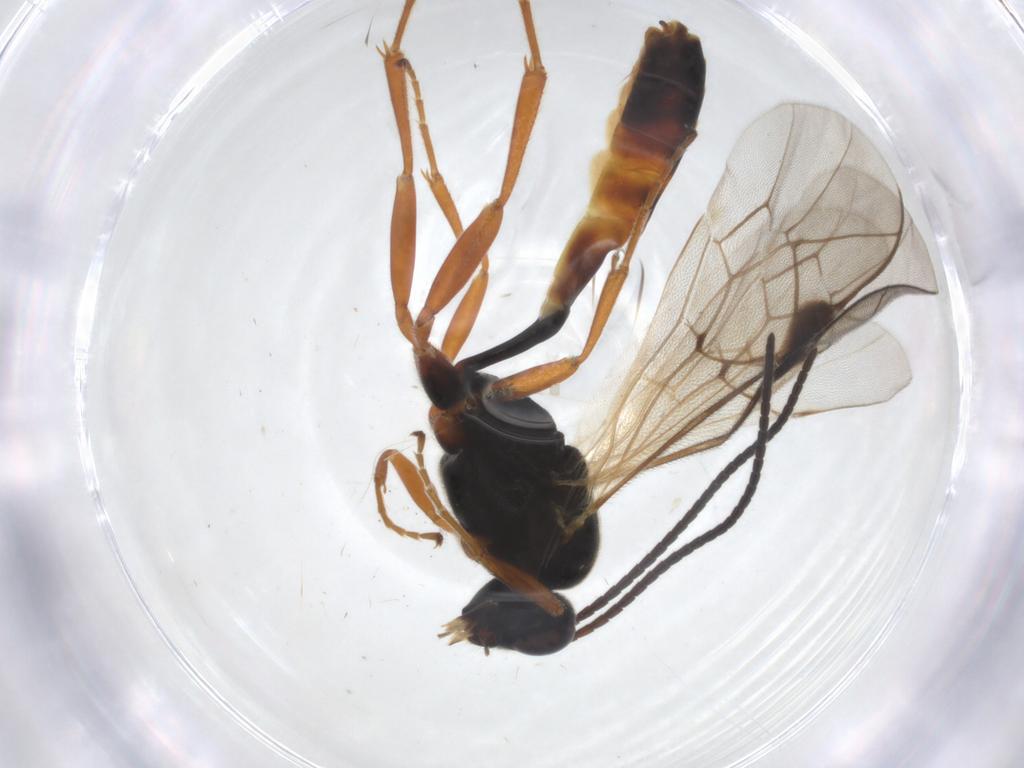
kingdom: Animalia
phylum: Arthropoda
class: Insecta
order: Hymenoptera
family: Ichneumonidae
